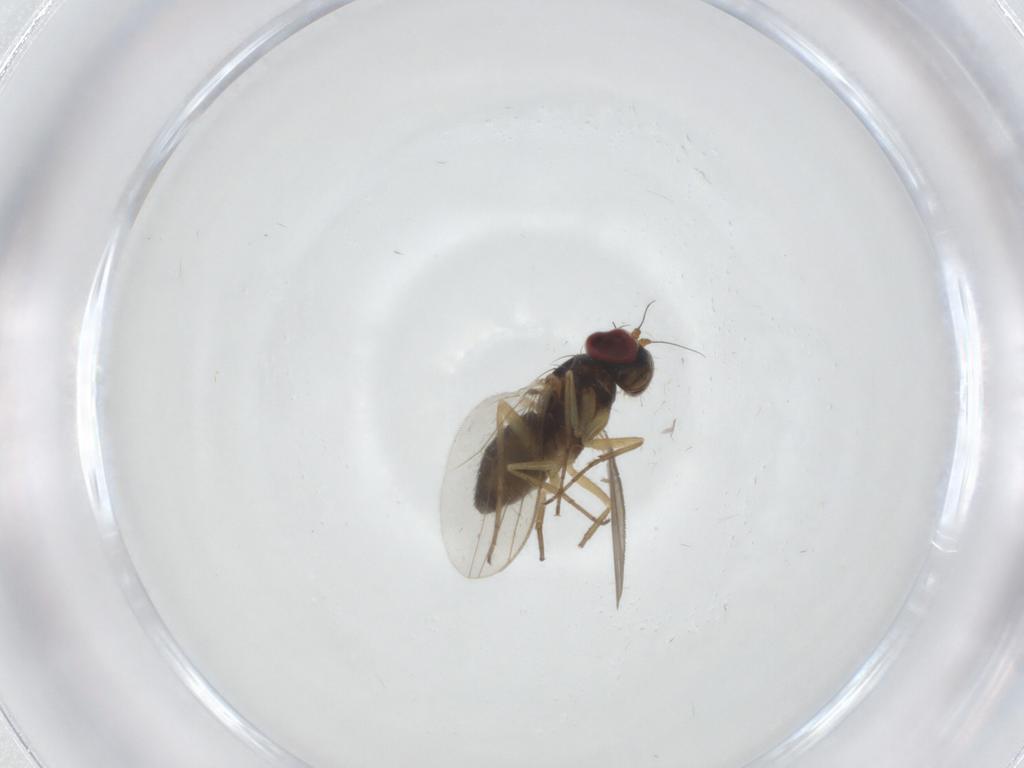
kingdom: Animalia
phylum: Arthropoda
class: Insecta
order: Diptera
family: Dolichopodidae
